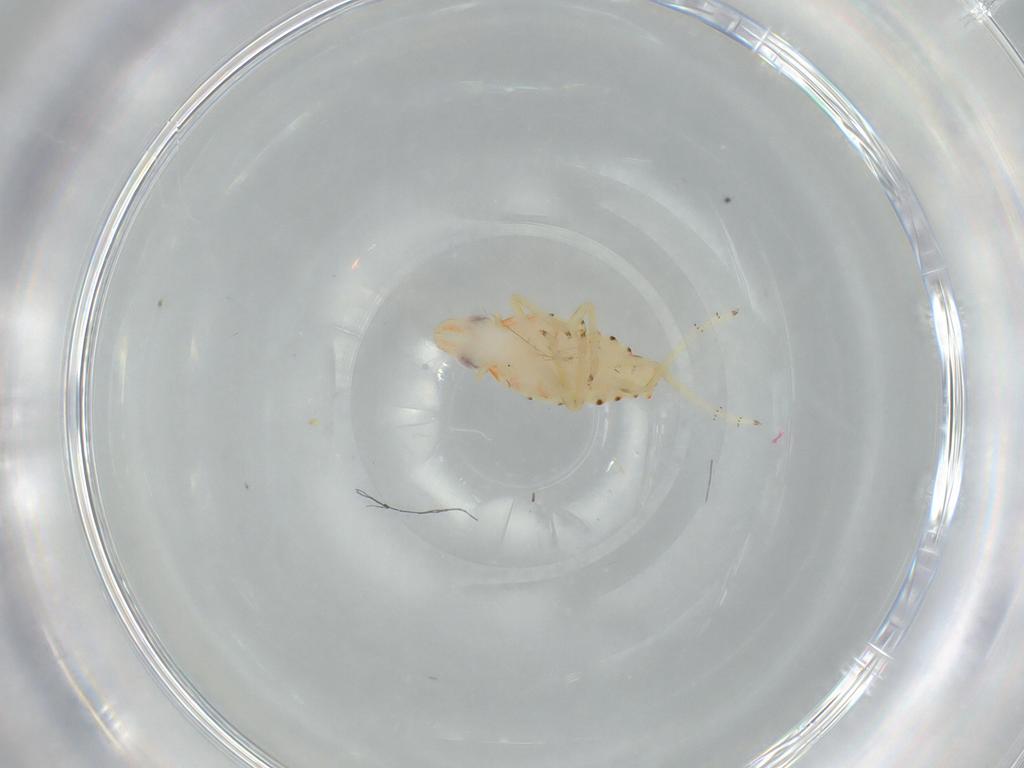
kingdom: Animalia
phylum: Arthropoda
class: Insecta
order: Hemiptera
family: Tropiduchidae
